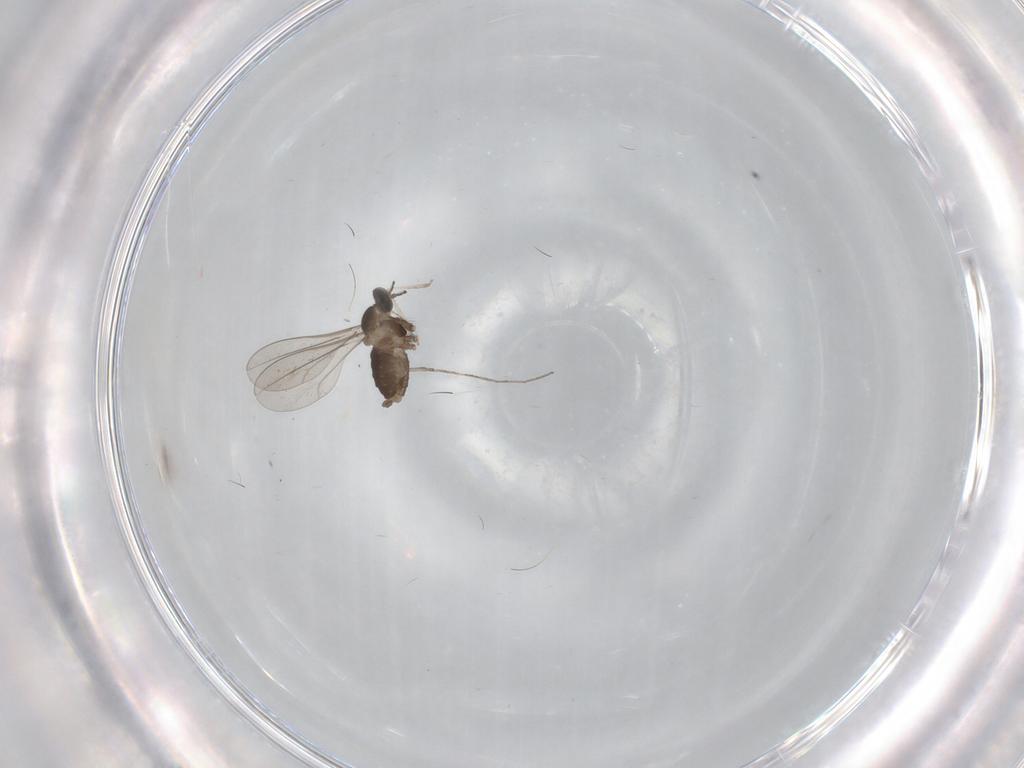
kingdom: Animalia
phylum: Arthropoda
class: Insecta
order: Diptera
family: Cecidomyiidae
